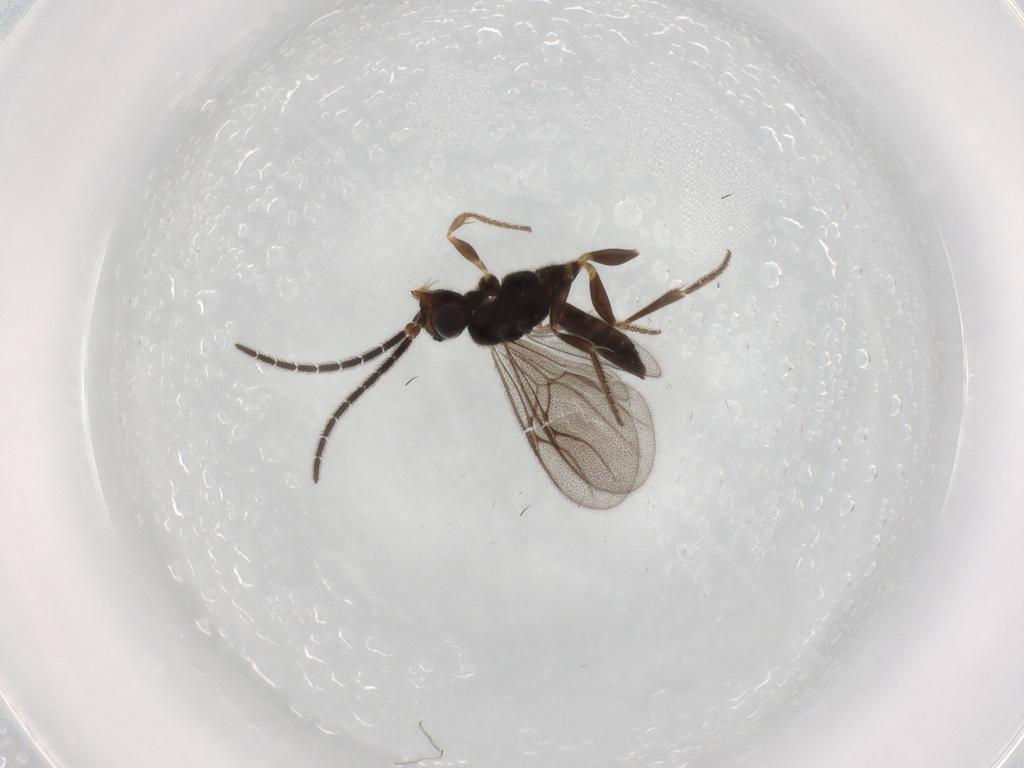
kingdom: Animalia
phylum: Arthropoda
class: Insecta
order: Hymenoptera
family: Dryinidae
